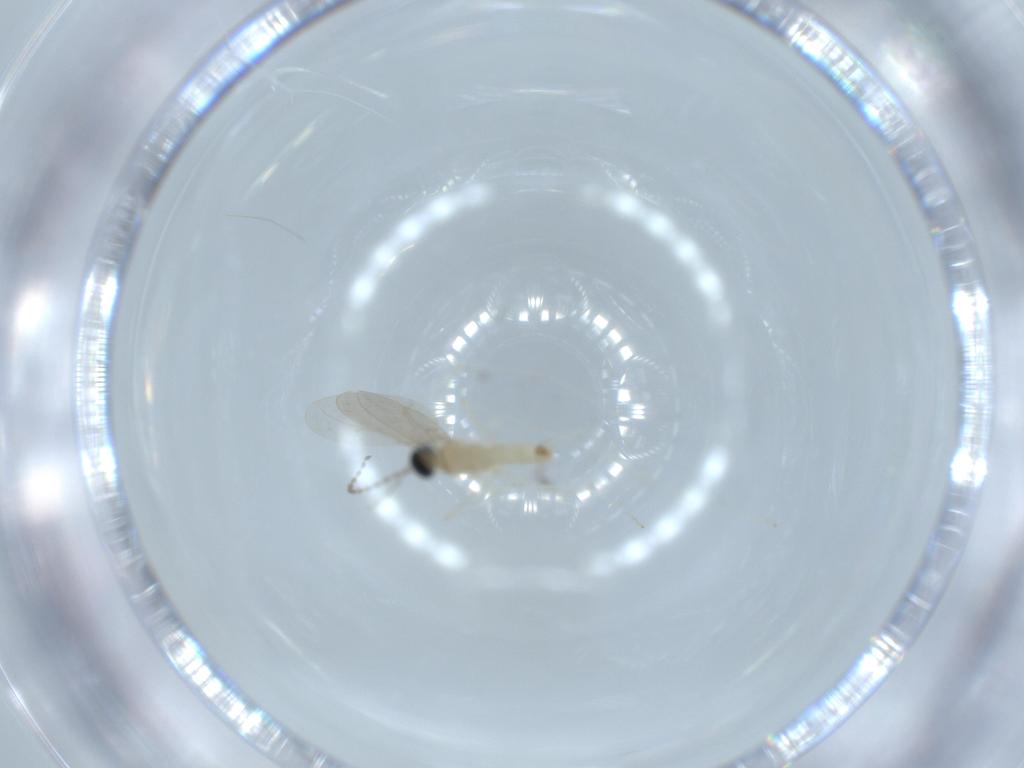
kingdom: Animalia
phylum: Arthropoda
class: Insecta
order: Diptera
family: Cecidomyiidae
